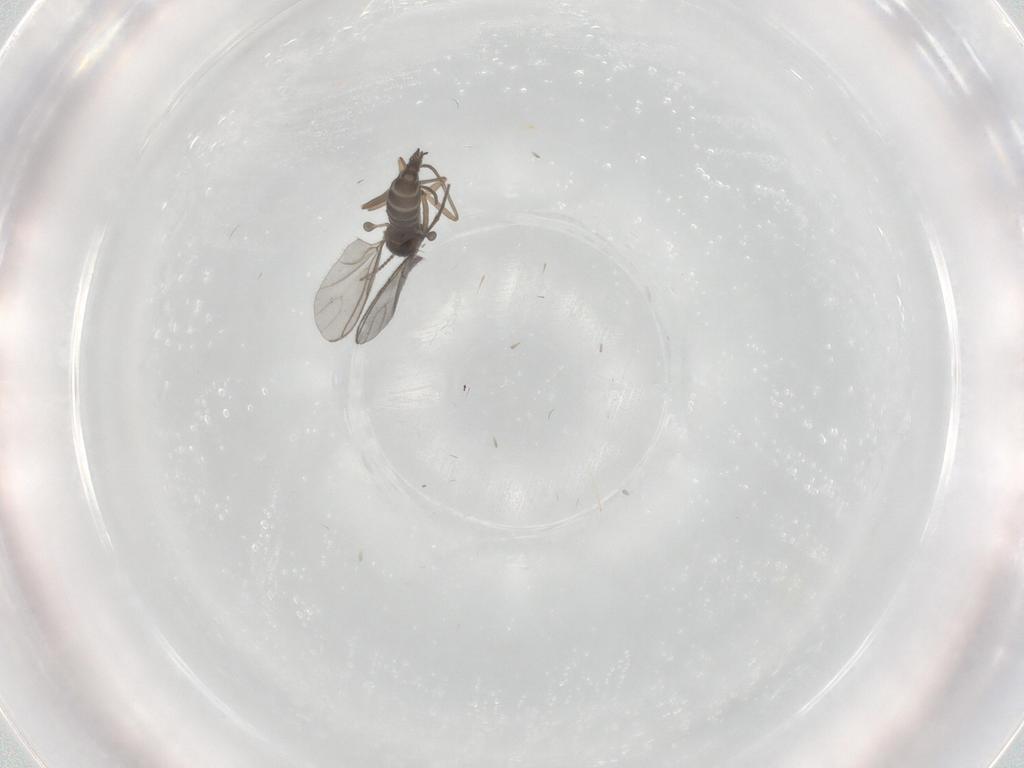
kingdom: Animalia
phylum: Arthropoda
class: Insecta
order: Diptera
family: Sciaridae
